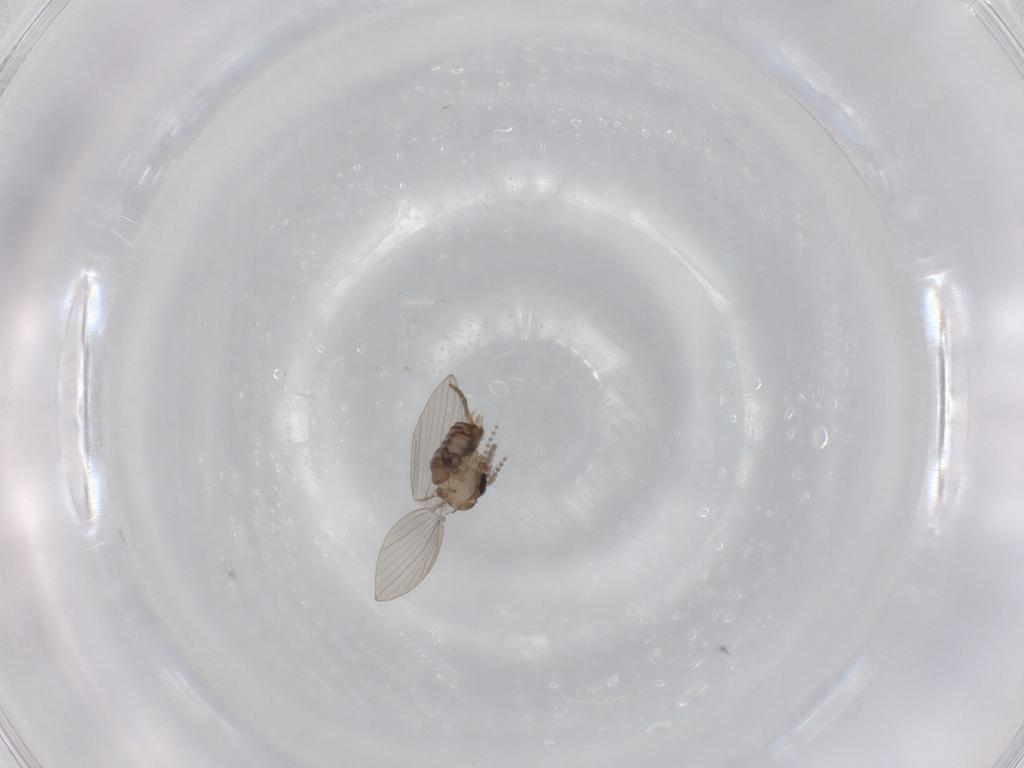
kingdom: Animalia
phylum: Arthropoda
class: Insecta
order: Diptera
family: Psychodidae
